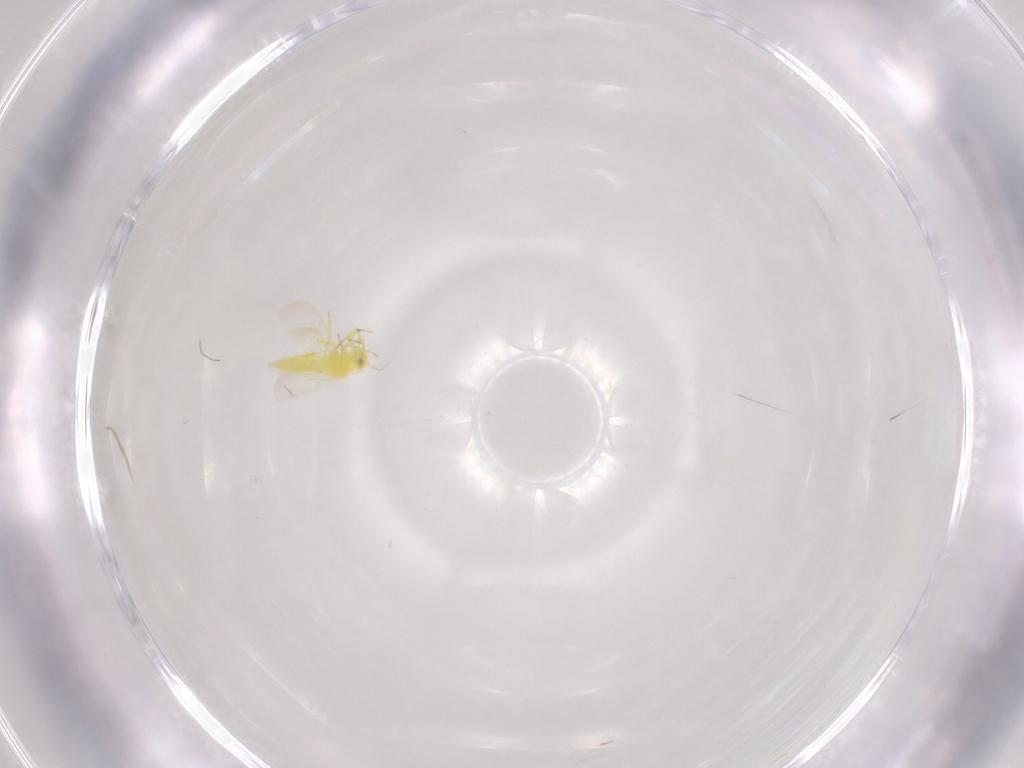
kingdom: Animalia
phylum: Arthropoda
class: Insecta
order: Hemiptera
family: Aleyrodidae
